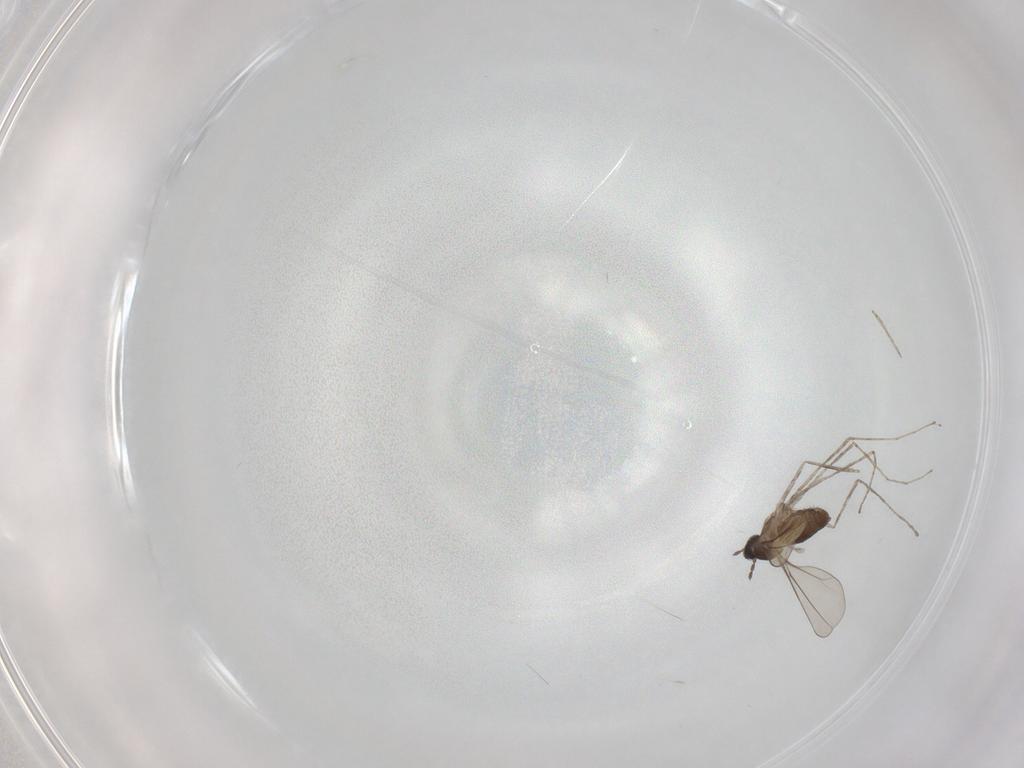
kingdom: Animalia
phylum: Arthropoda
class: Insecta
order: Diptera
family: Cecidomyiidae
